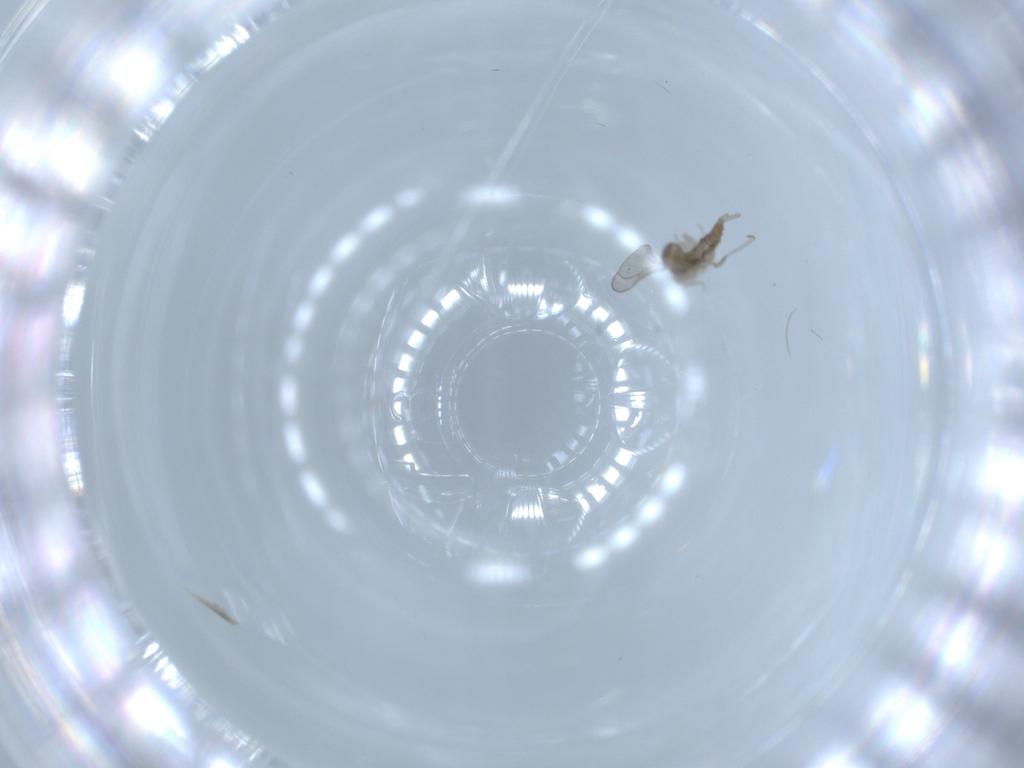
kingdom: Animalia
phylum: Arthropoda
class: Insecta
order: Diptera
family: Cecidomyiidae
